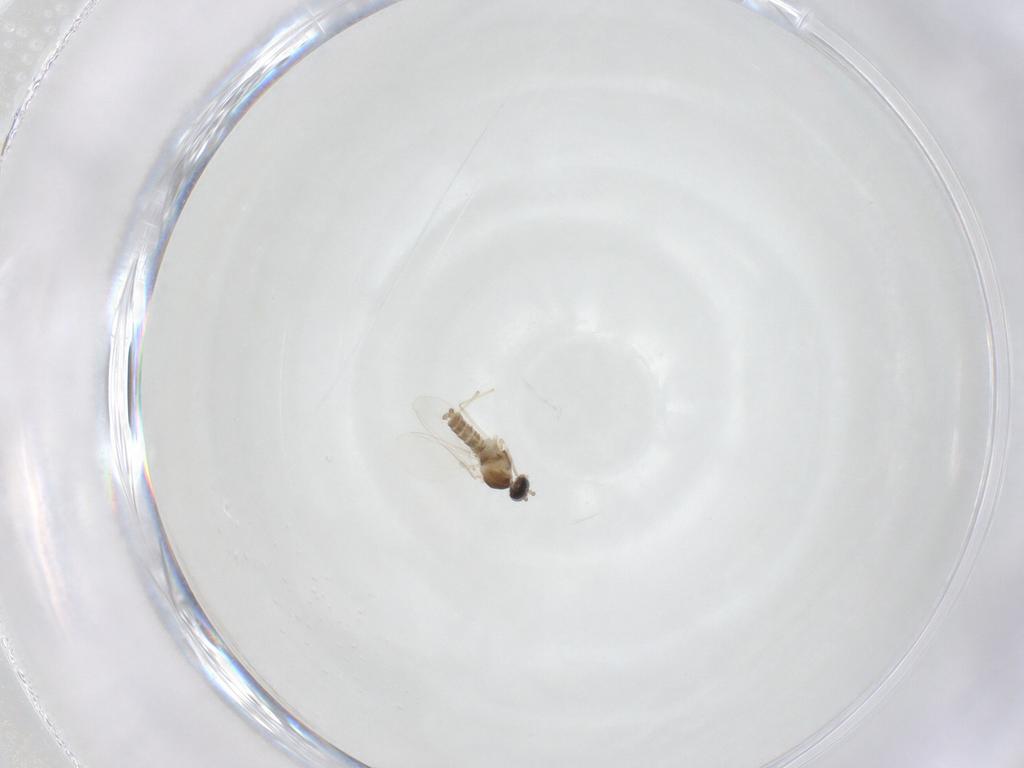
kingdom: Animalia
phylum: Arthropoda
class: Insecta
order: Diptera
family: Cecidomyiidae
